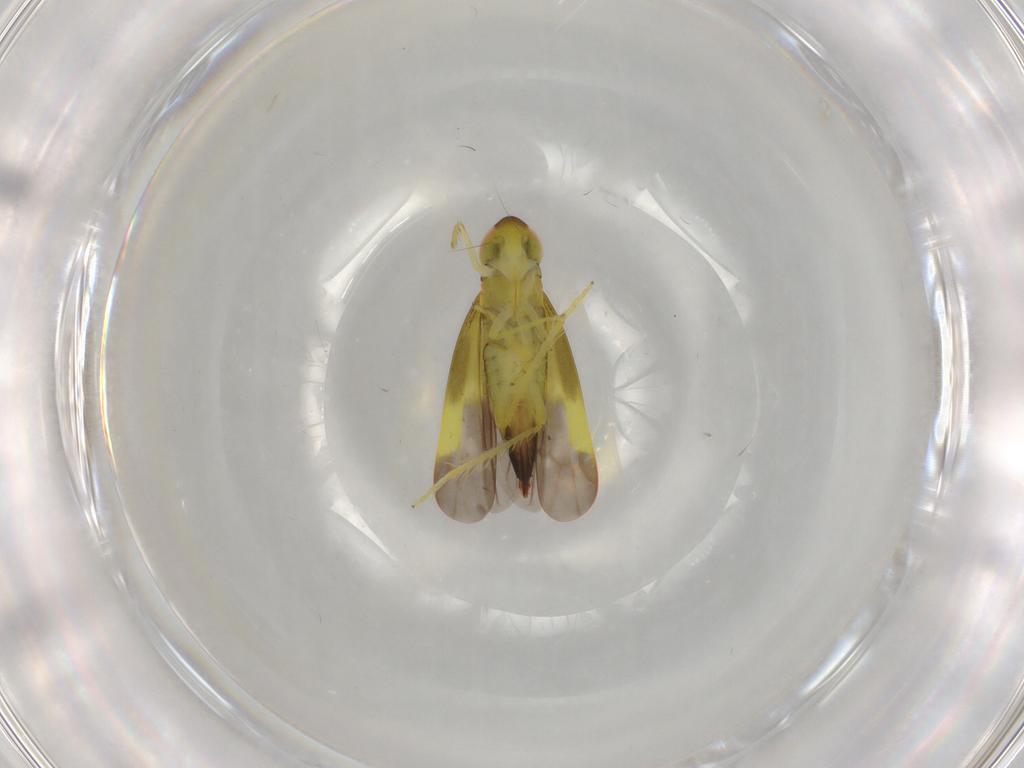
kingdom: Animalia
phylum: Arthropoda
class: Insecta
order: Hemiptera
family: Cicadellidae
